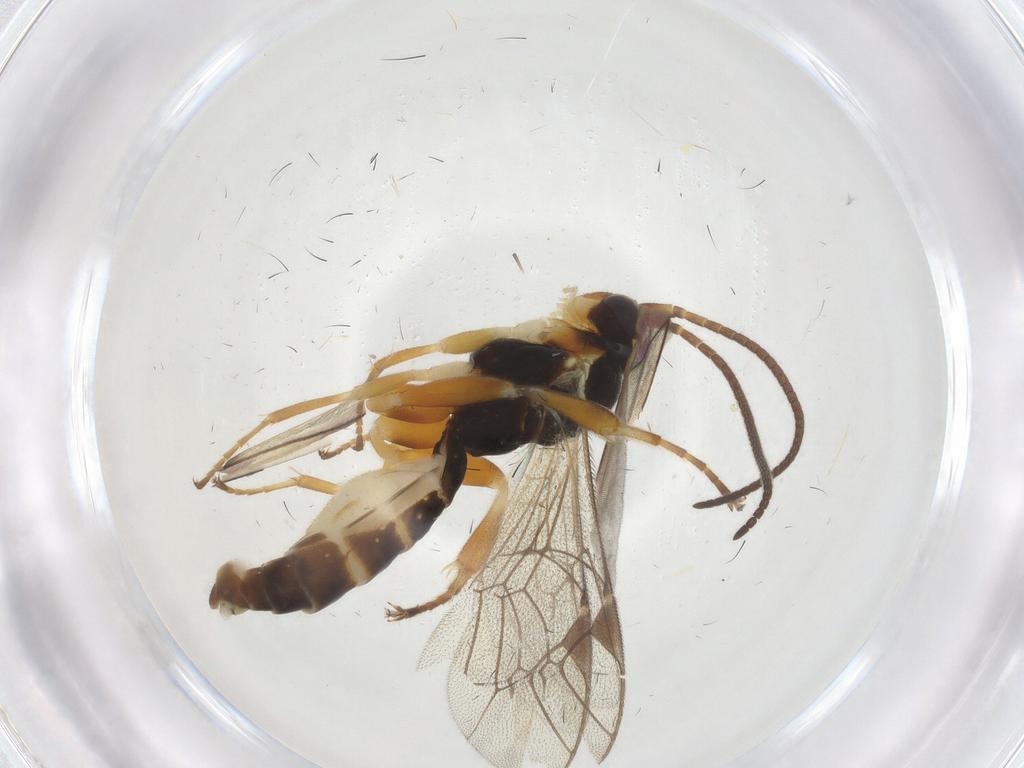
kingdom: Animalia
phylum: Arthropoda
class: Insecta
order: Hymenoptera
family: Ichneumonidae
